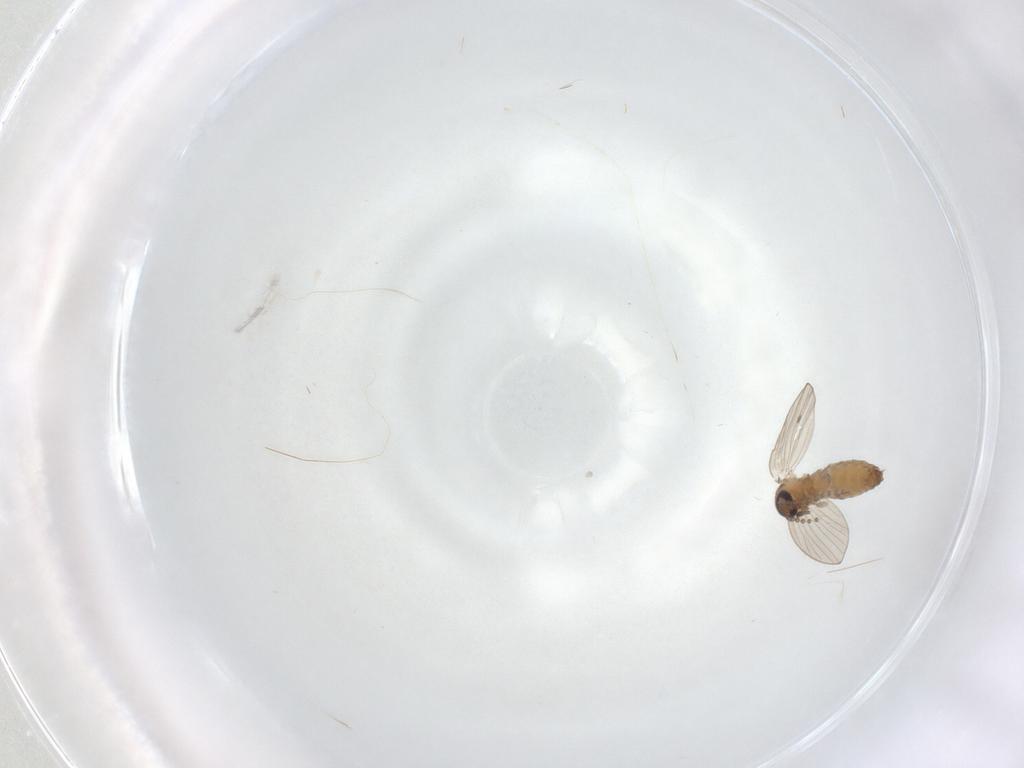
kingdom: Animalia
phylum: Arthropoda
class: Insecta
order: Diptera
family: Psychodidae
